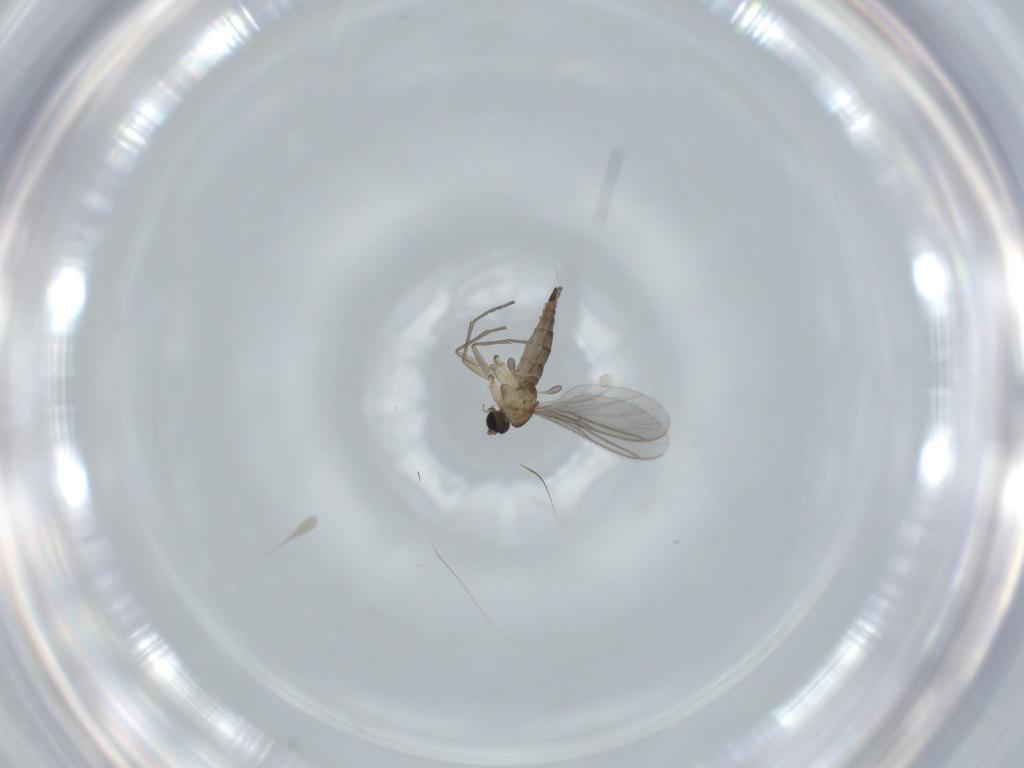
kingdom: Animalia
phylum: Arthropoda
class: Insecta
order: Diptera
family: Sciaridae
